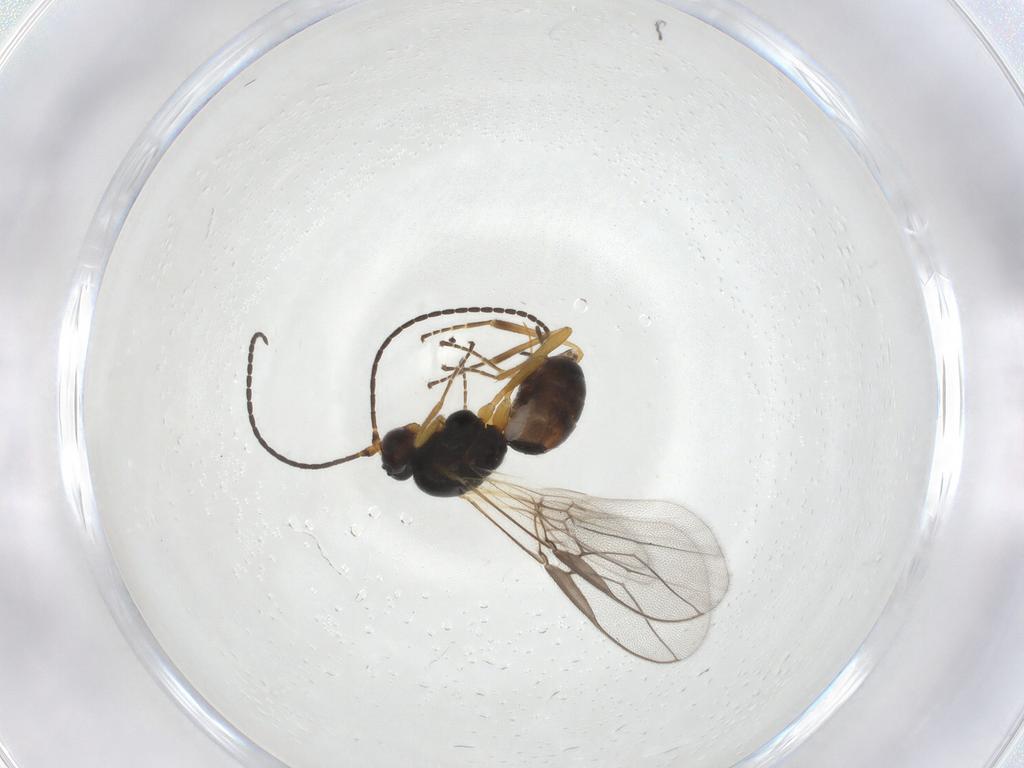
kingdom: Animalia
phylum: Arthropoda
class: Insecta
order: Hymenoptera
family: Braconidae
